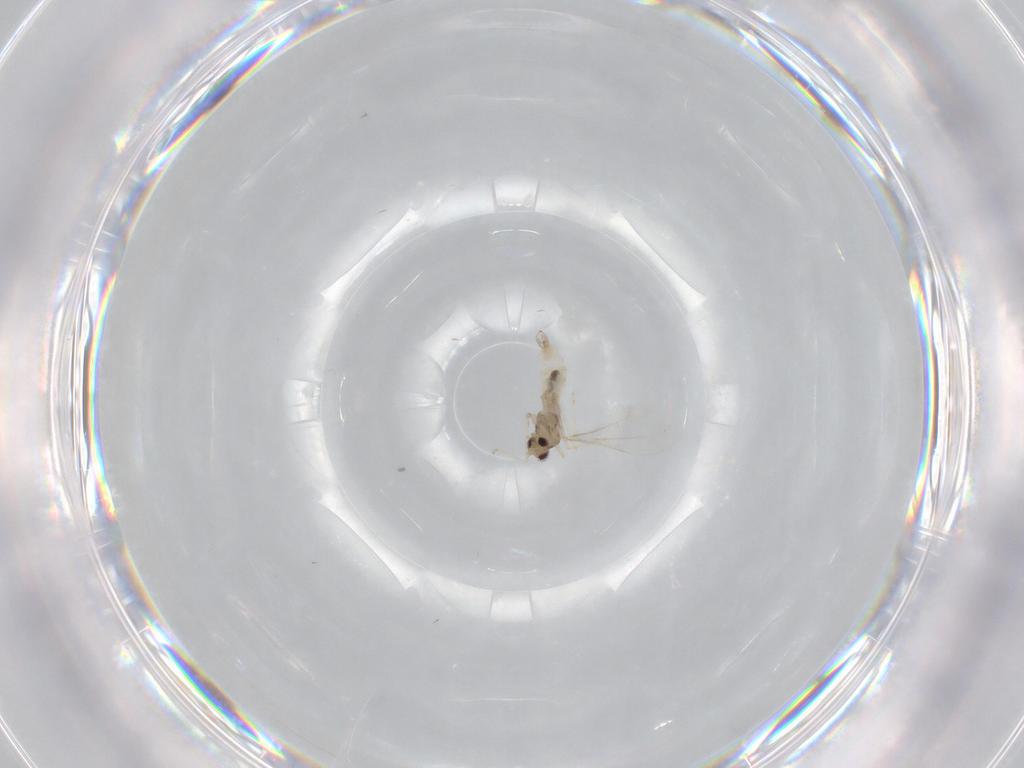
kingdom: Animalia
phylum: Arthropoda
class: Insecta
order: Diptera
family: Cecidomyiidae
